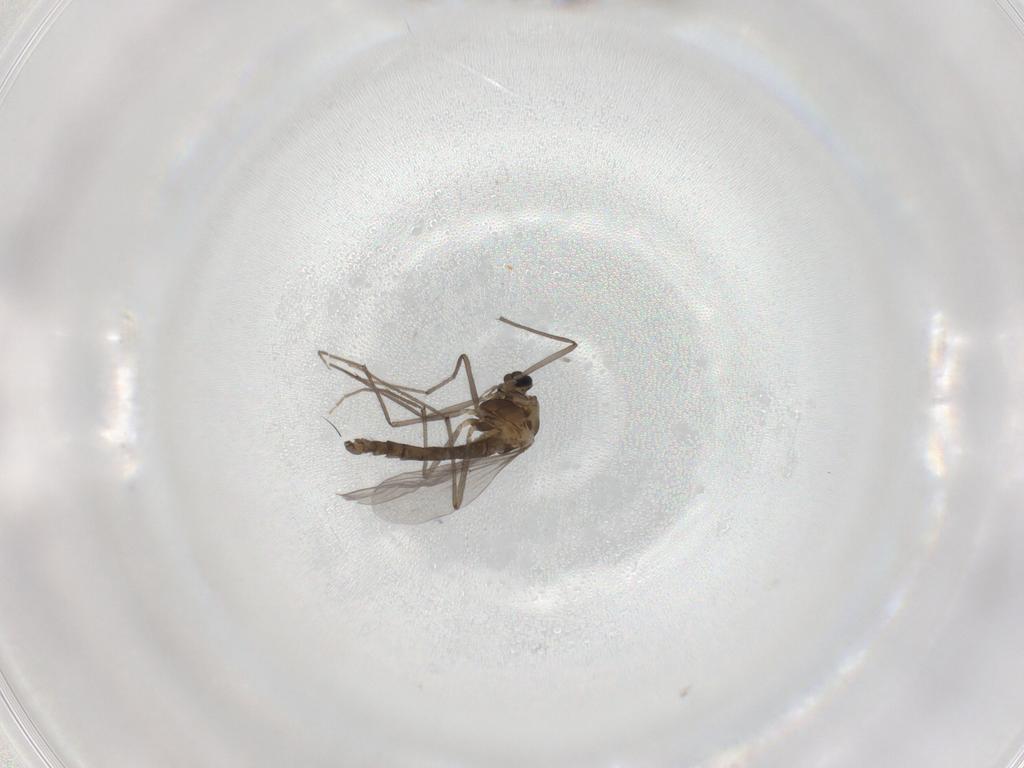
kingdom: Animalia
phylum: Arthropoda
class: Insecta
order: Diptera
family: Chironomidae
